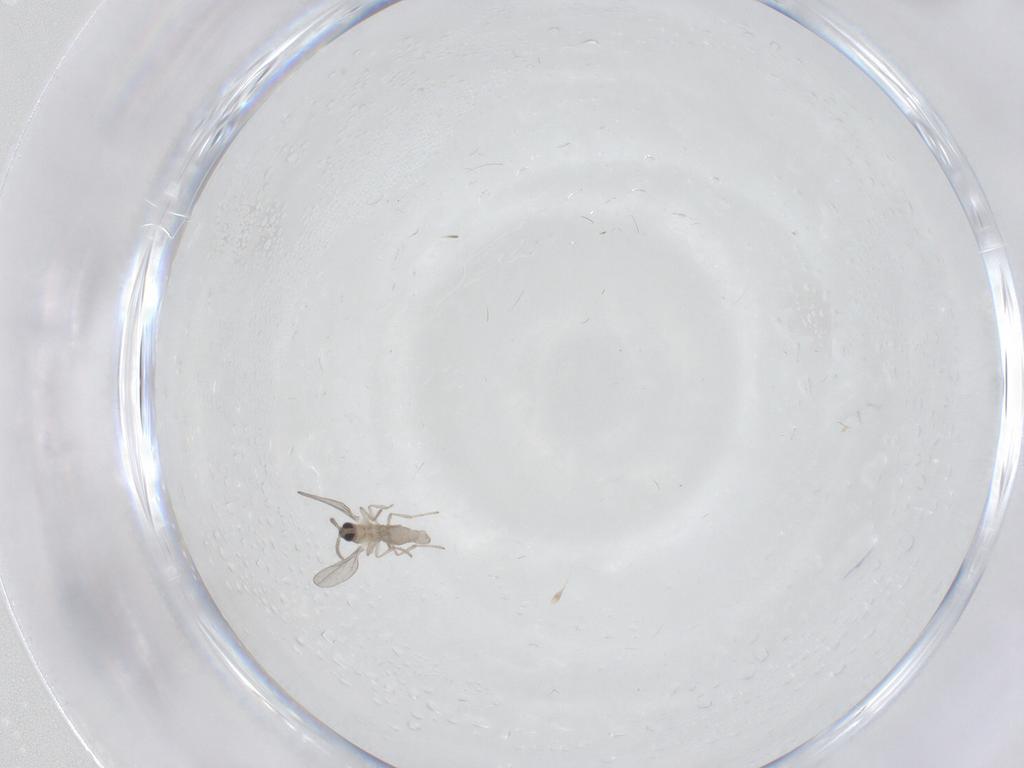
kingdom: Animalia
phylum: Arthropoda
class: Insecta
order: Diptera
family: Cecidomyiidae
